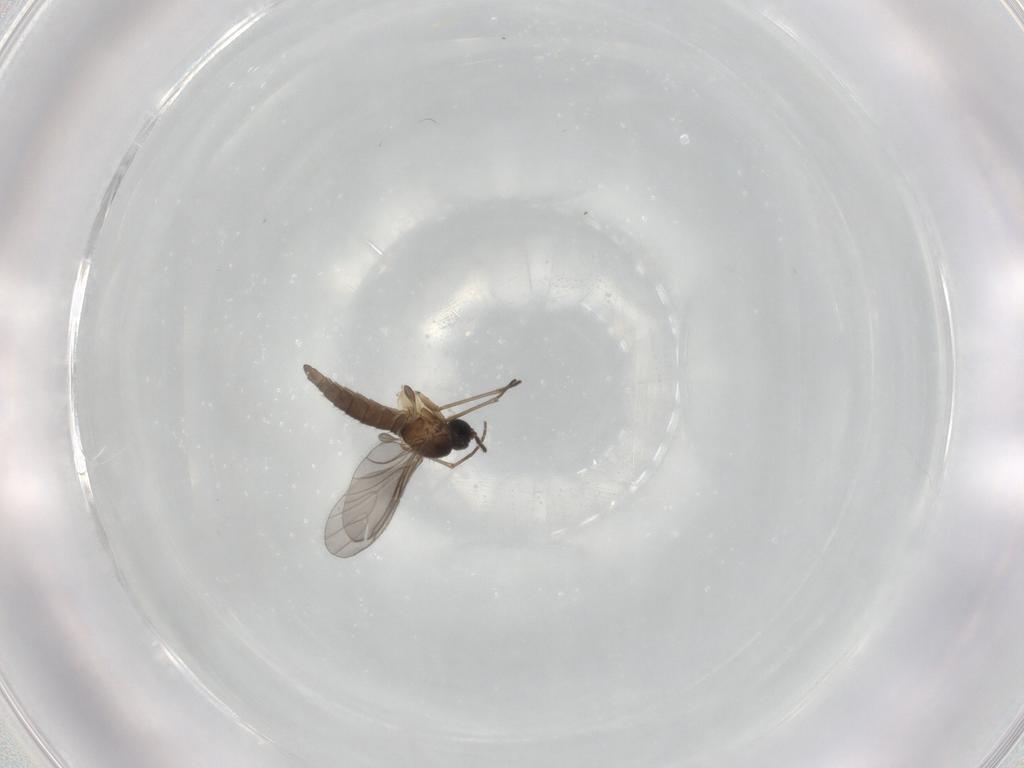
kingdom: Animalia
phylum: Arthropoda
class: Insecta
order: Diptera
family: Sciaridae
